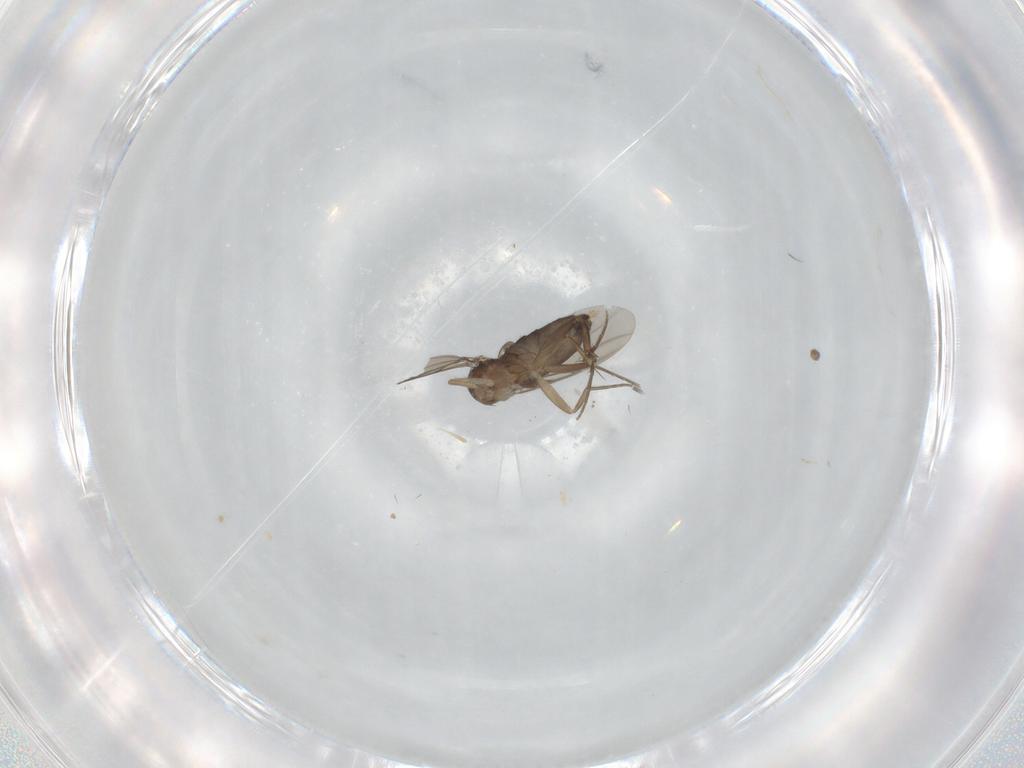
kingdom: Animalia
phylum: Arthropoda
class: Insecta
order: Diptera
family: Phoridae
